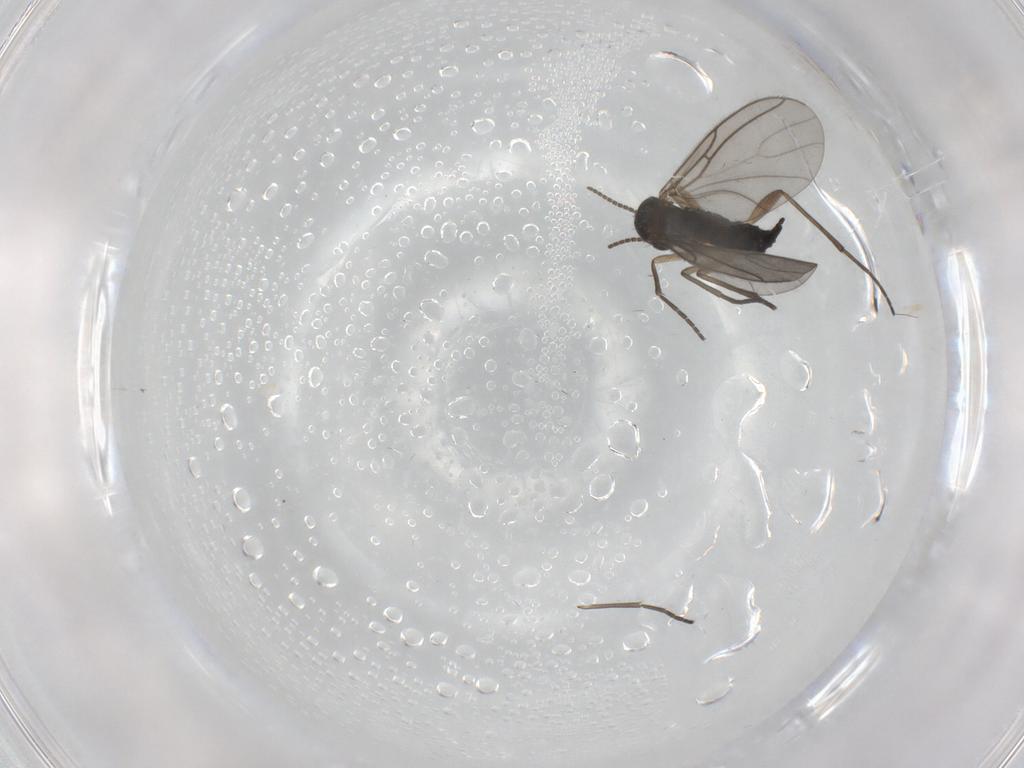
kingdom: Animalia
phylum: Arthropoda
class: Insecta
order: Diptera
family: Sciaridae
